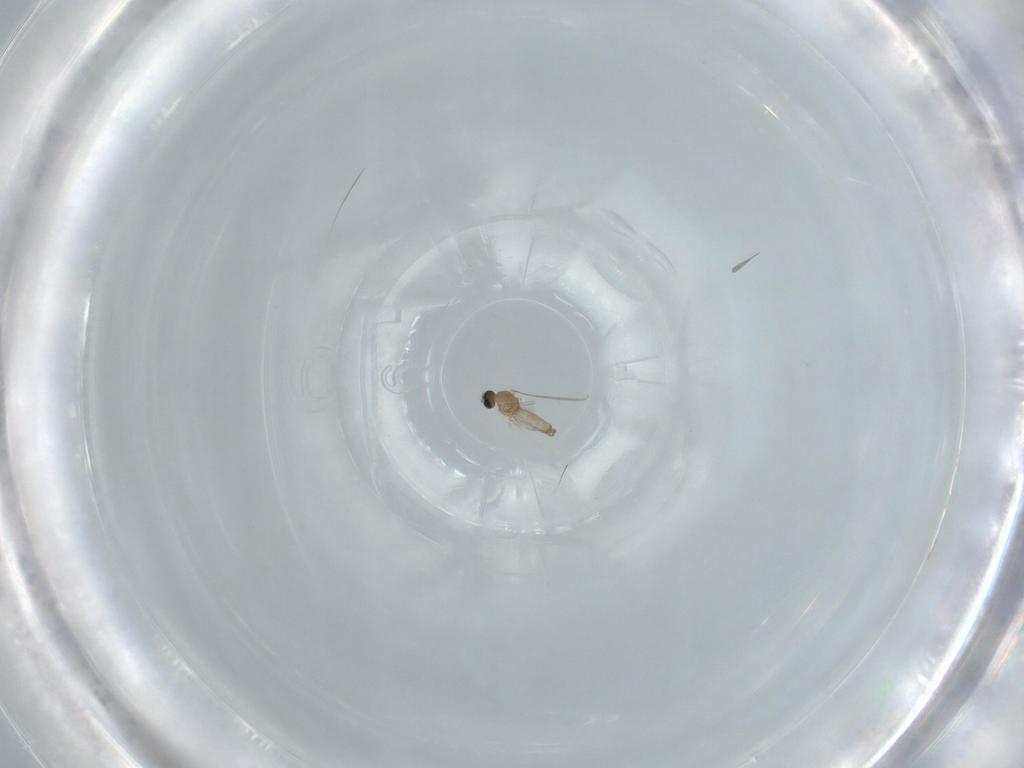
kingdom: Animalia
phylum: Arthropoda
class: Insecta
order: Diptera
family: Cecidomyiidae
